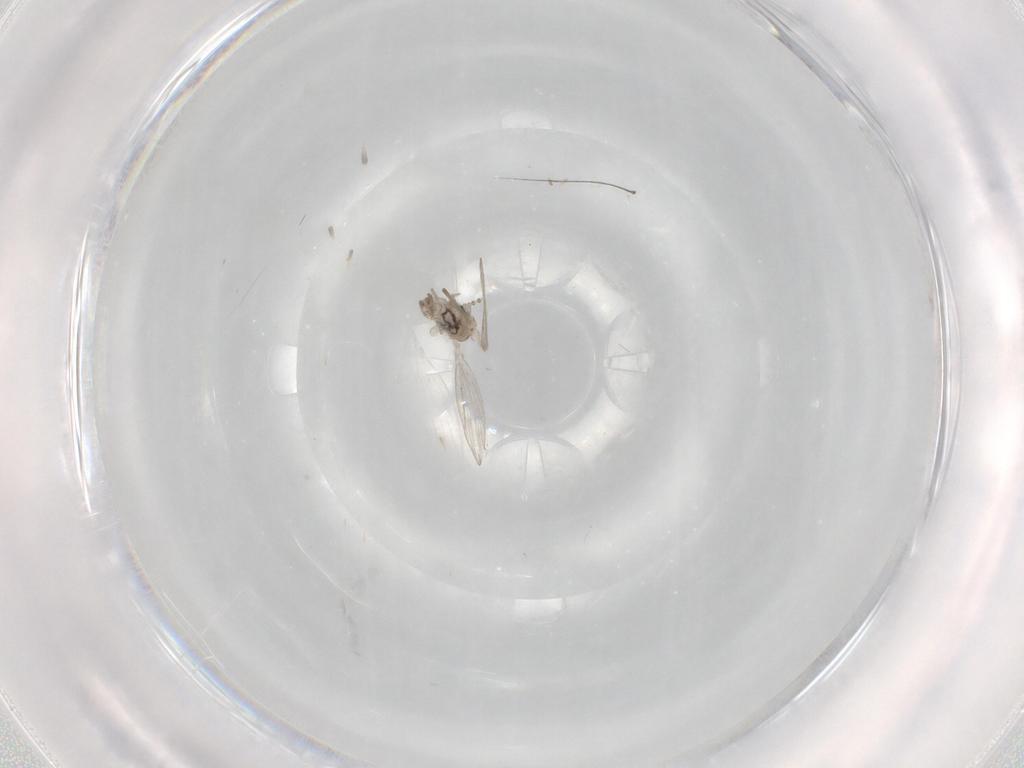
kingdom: Animalia
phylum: Arthropoda
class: Insecta
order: Diptera
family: Psychodidae
